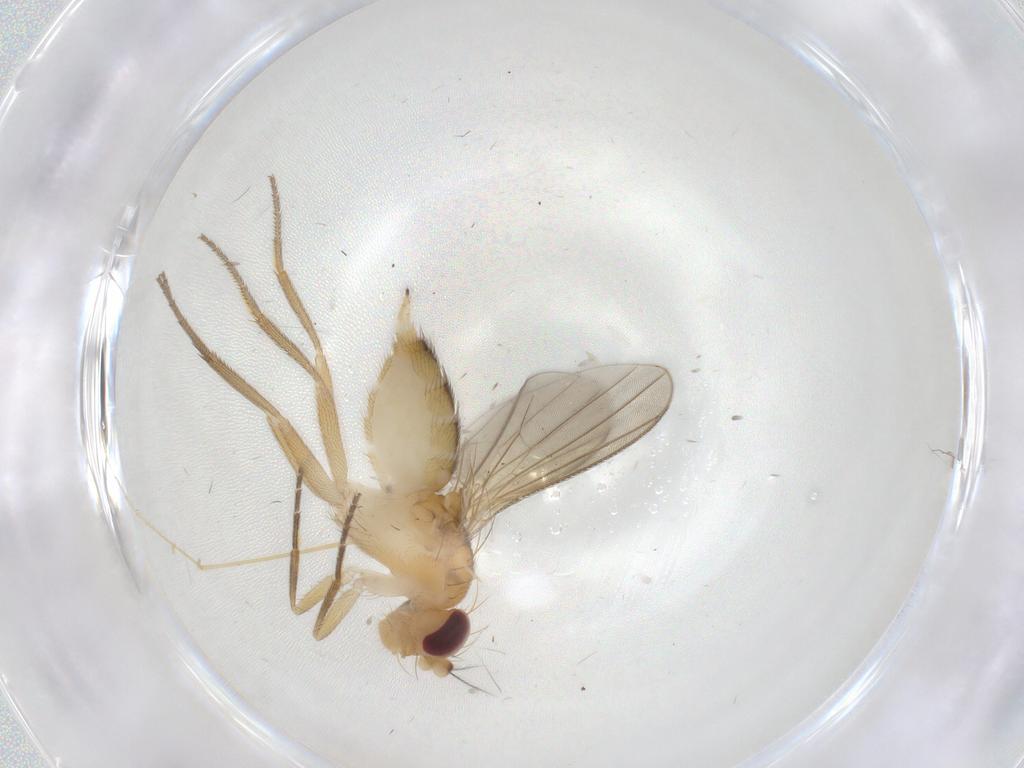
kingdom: Animalia
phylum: Arthropoda
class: Insecta
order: Diptera
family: Clusiidae
